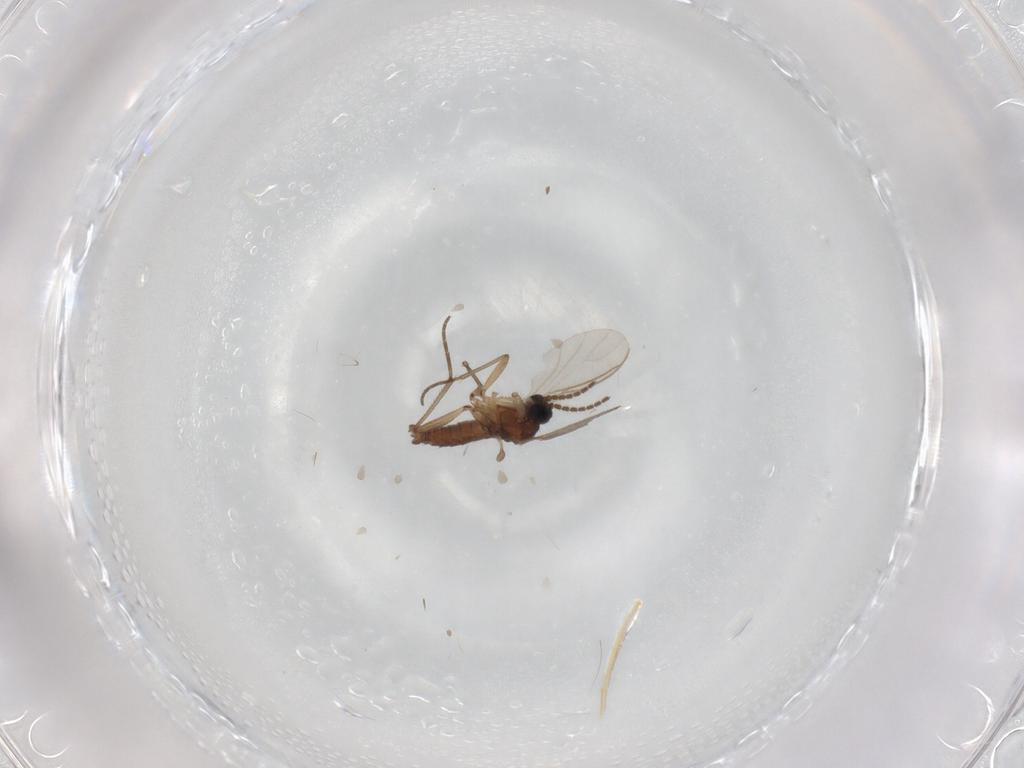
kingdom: Animalia
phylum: Arthropoda
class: Insecta
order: Diptera
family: Sciaridae
